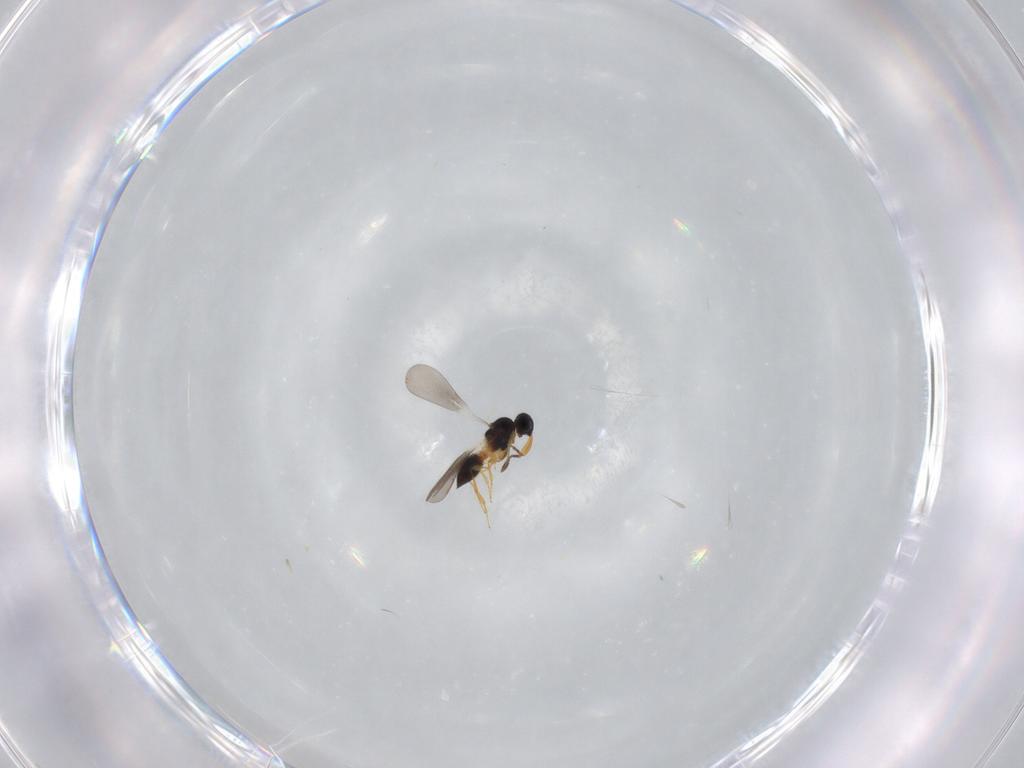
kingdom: Animalia
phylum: Arthropoda
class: Insecta
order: Hymenoptera
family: Platygastridae
